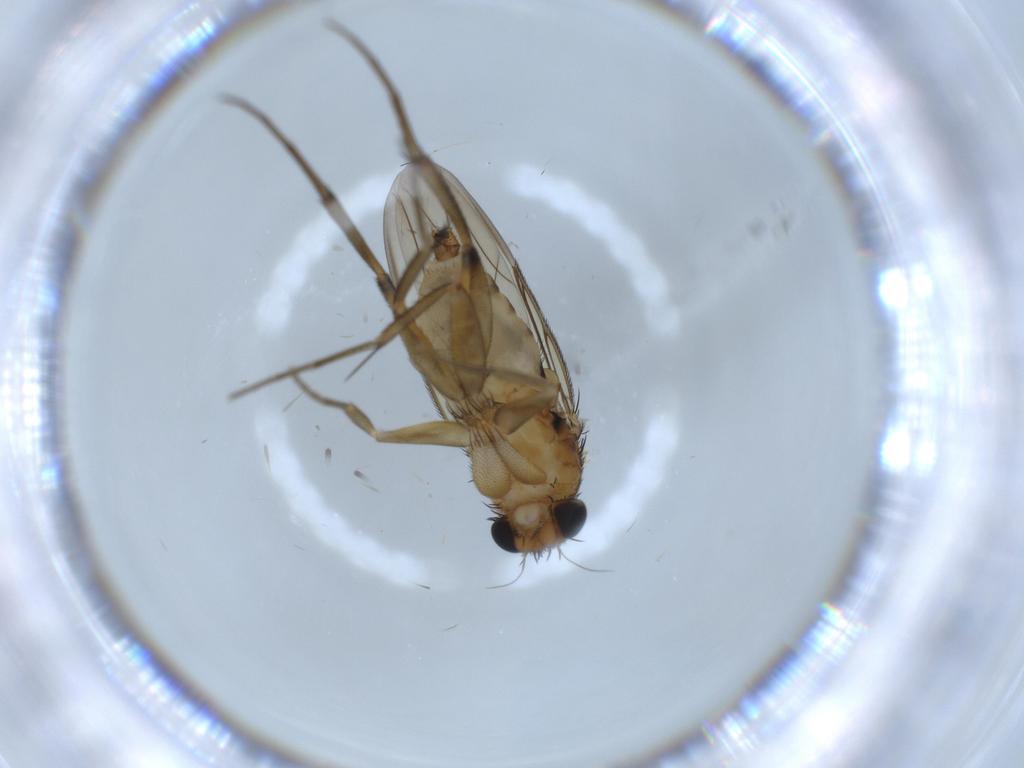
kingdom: Animalia
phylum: Arthropoda
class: Insecta
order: Diptera
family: Phoridae
